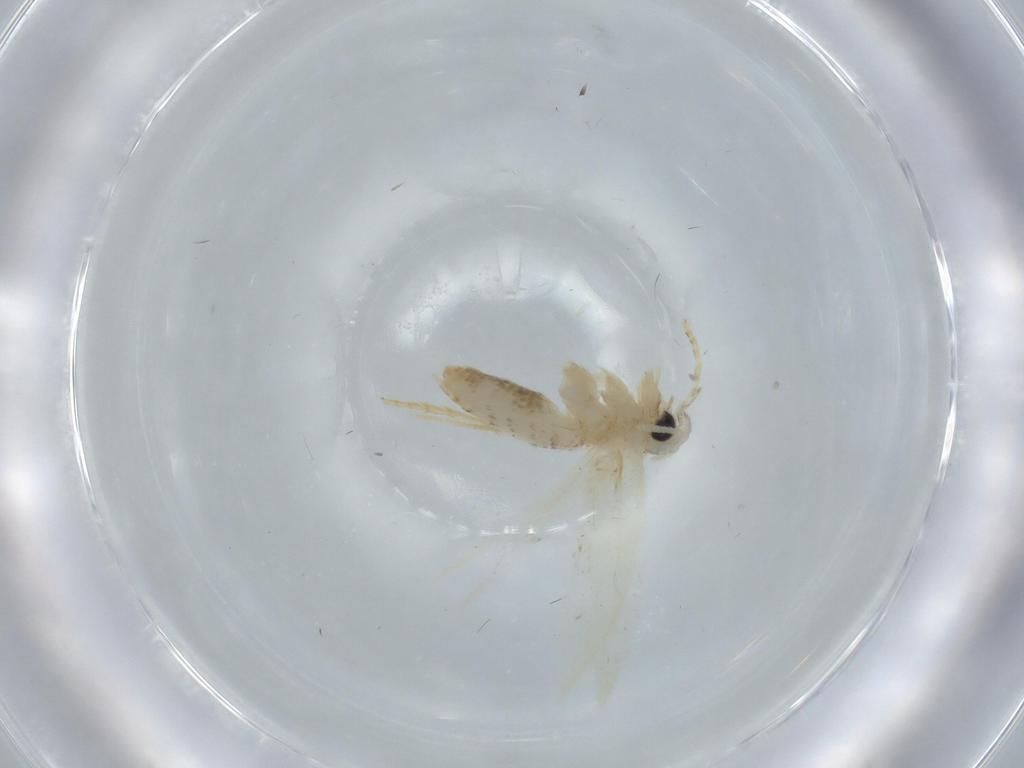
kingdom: Animalia
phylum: Arthropoda
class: Insecta
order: Lepidoptera
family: Opostegidae
